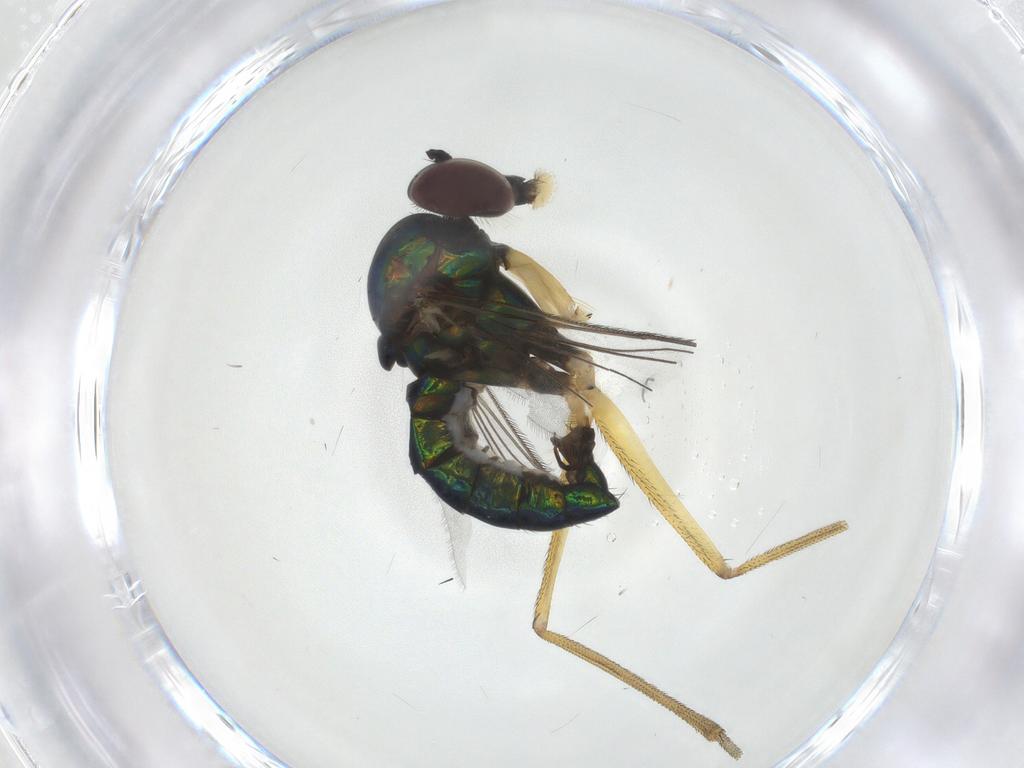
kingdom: Animalia
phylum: Arthropoda
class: Insecta
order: Diptera
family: Dolichopodidae
